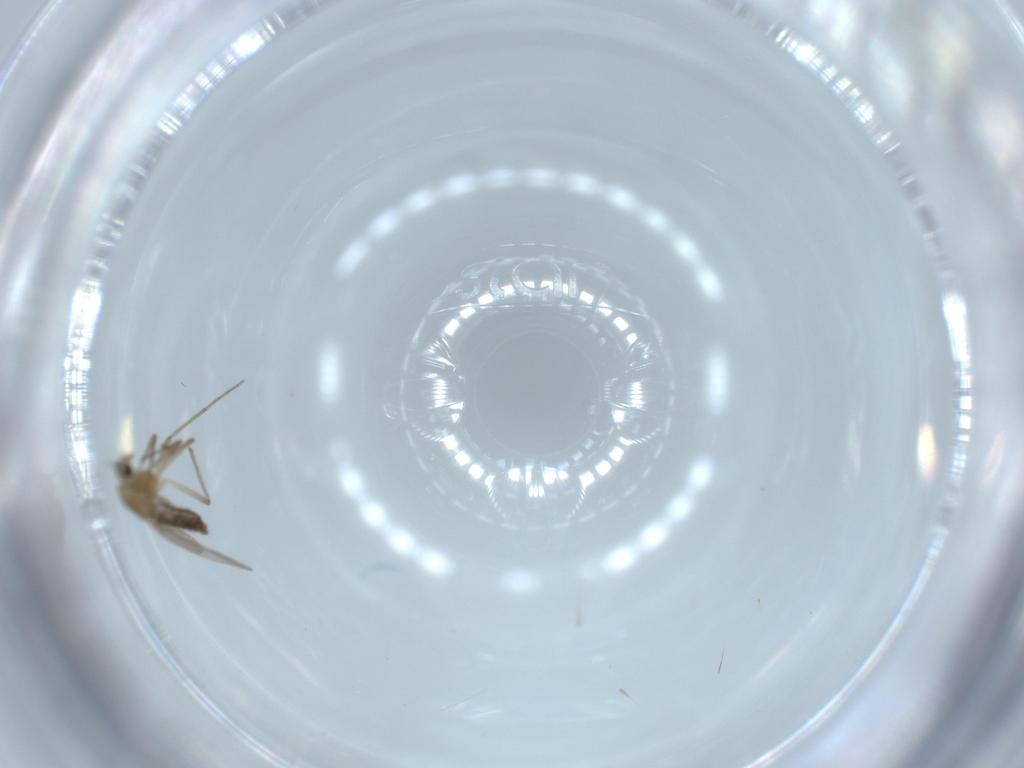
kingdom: Animalia
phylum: Arthropoda
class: Insecta
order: Diptera
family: Chironomidae
